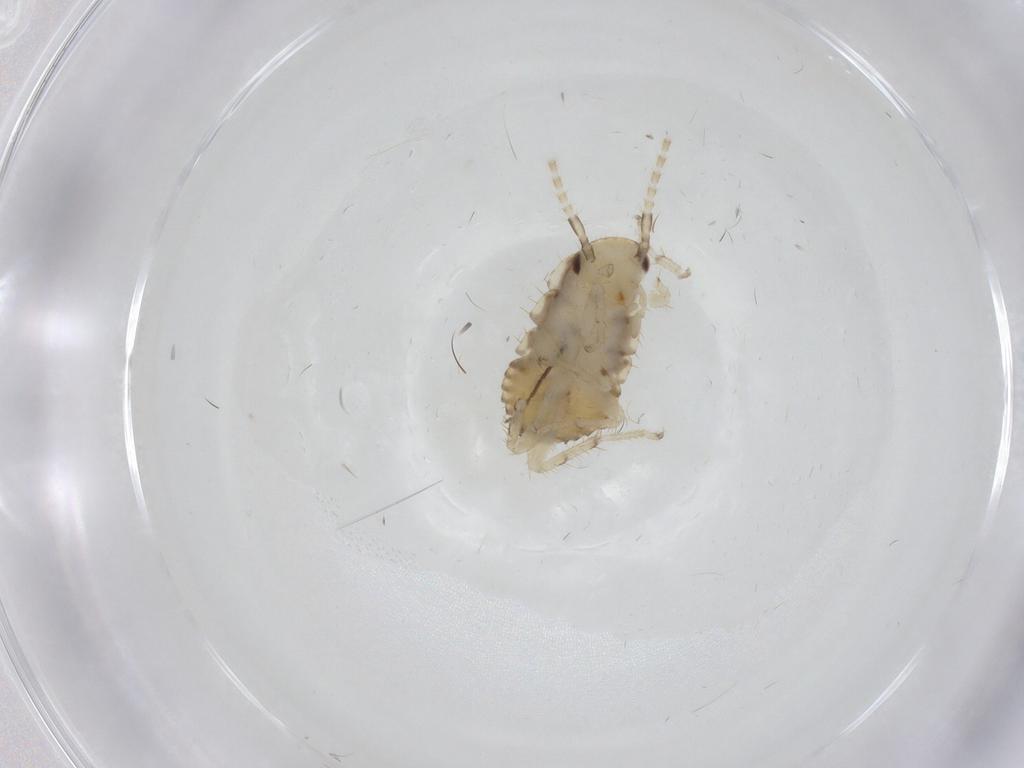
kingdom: Animalia
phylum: Arthropoda
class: Insecta
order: Blattodea
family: Ectobiidae
